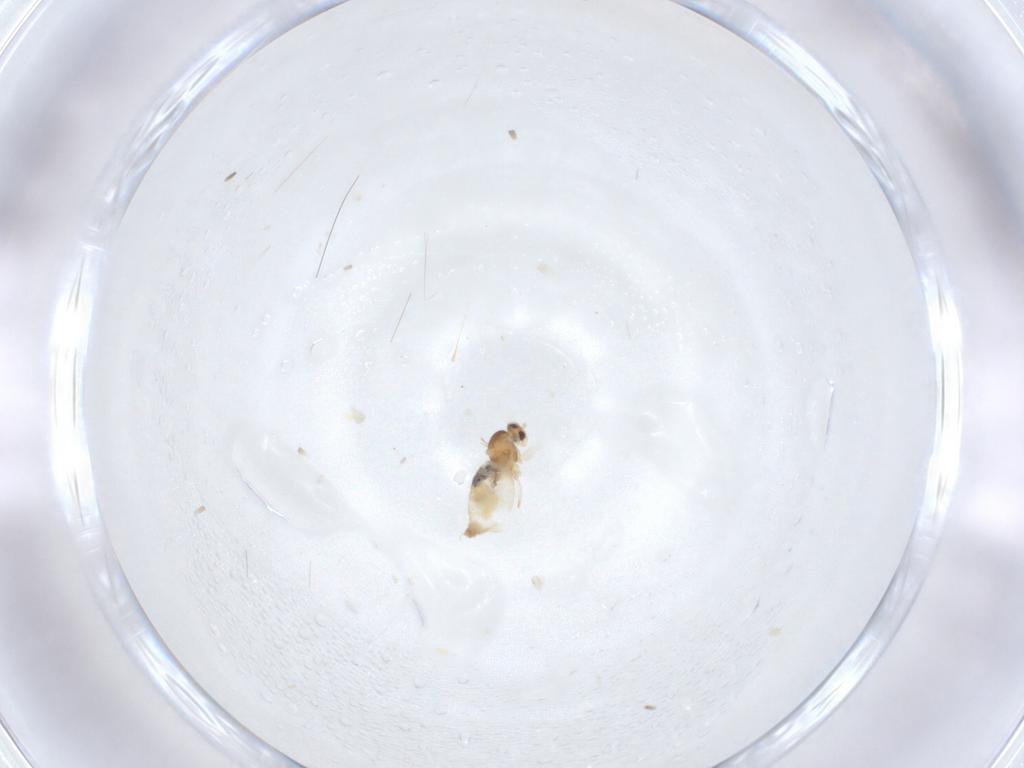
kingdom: Animalia
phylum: Arthropoda
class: Insecta
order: Diptera
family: Cecidomyiidae
